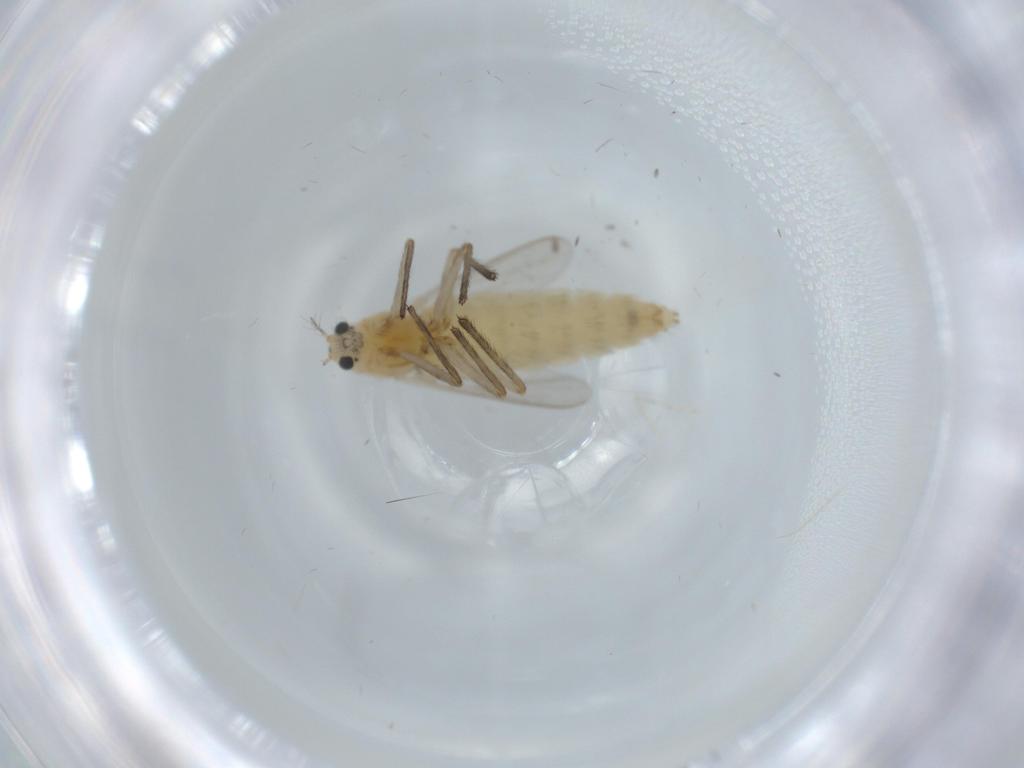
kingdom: Animalia
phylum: Arthropoda
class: Insecta
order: Diptera
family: Chironomidae
